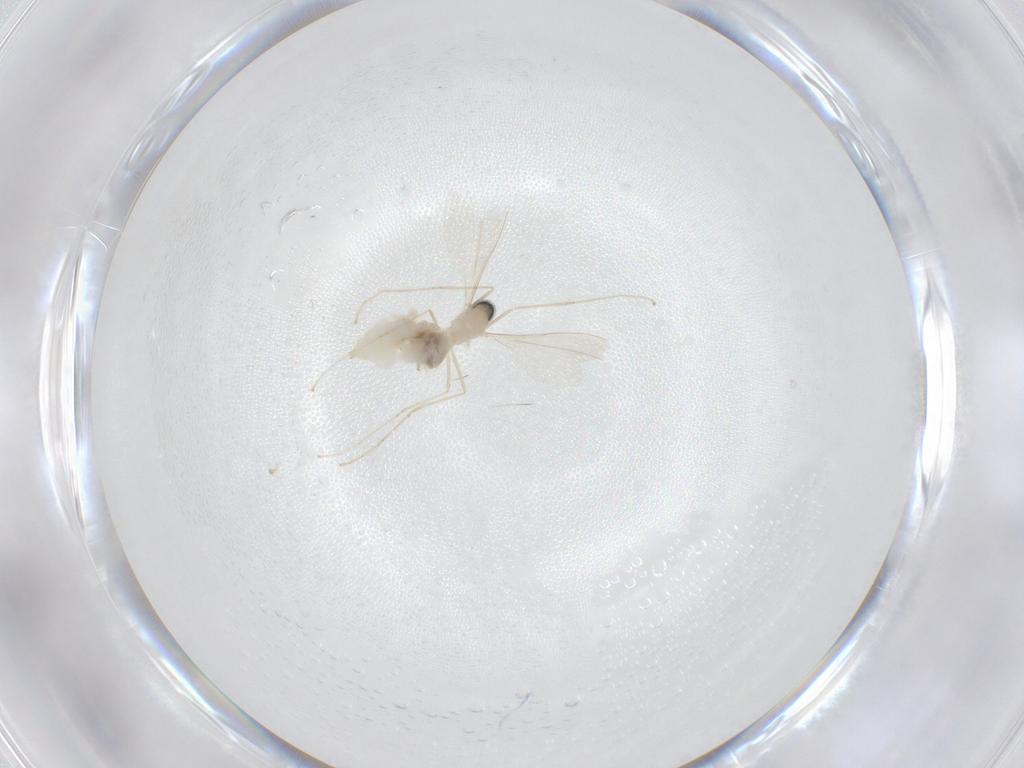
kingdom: Animalia
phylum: Arthropoda
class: Insecta
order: Diptera
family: Cecidomyiidae
